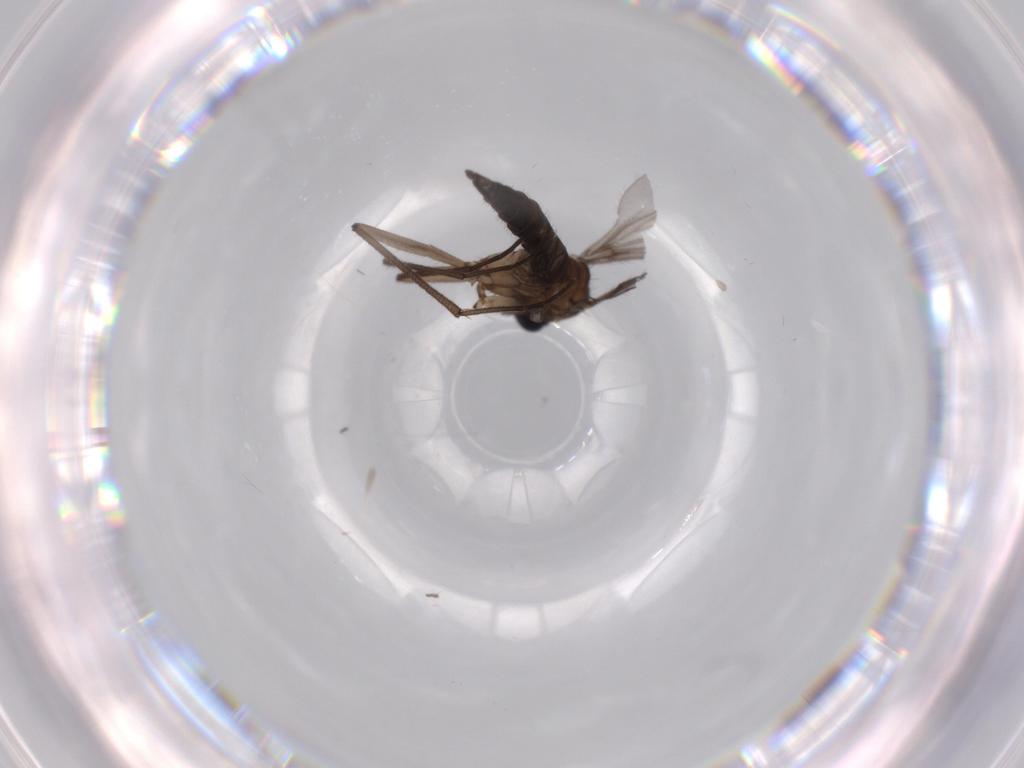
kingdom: Animalia
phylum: Arthropoda
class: Insecta
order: Diptera
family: Sciaridae
